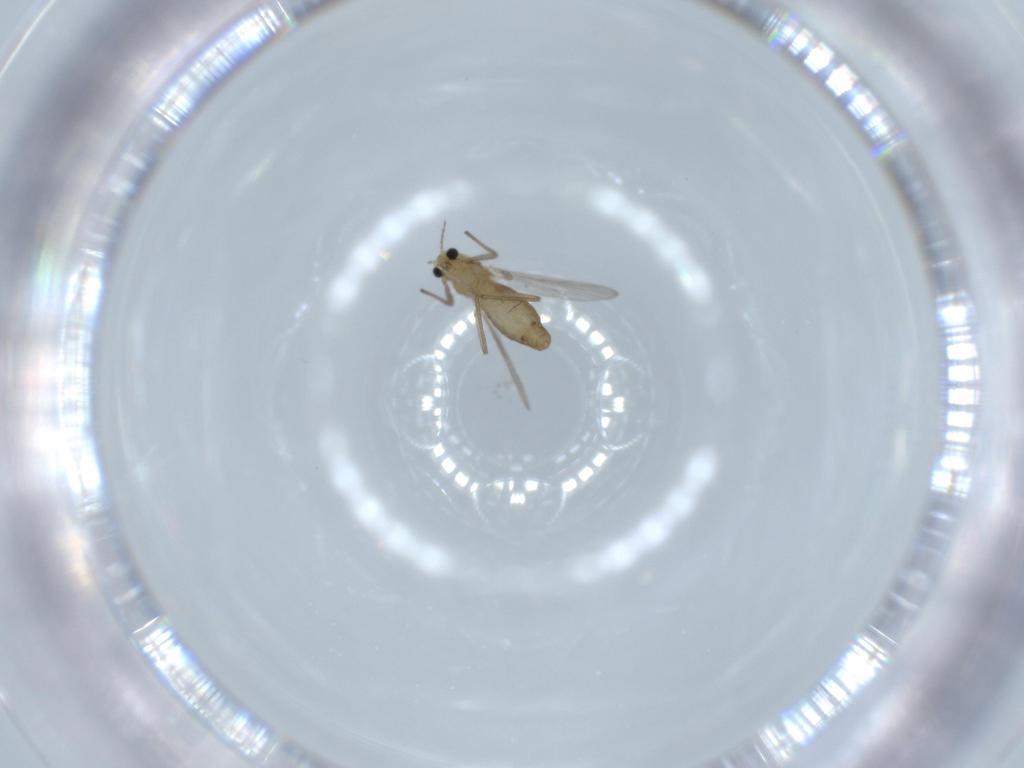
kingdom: Animalia
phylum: Arthropoda
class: Insecta
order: Diptera
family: Chironomidae
